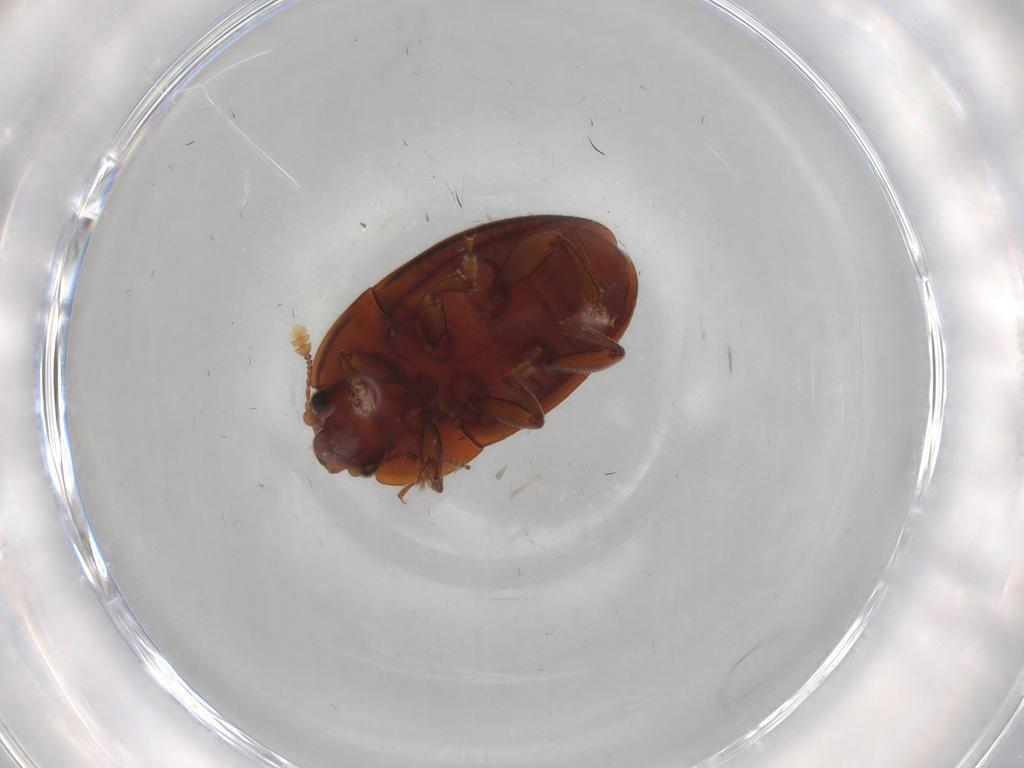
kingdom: Animalia
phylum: Arthropoda
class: Insecta
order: Coleoptera
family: Nitidulidae
